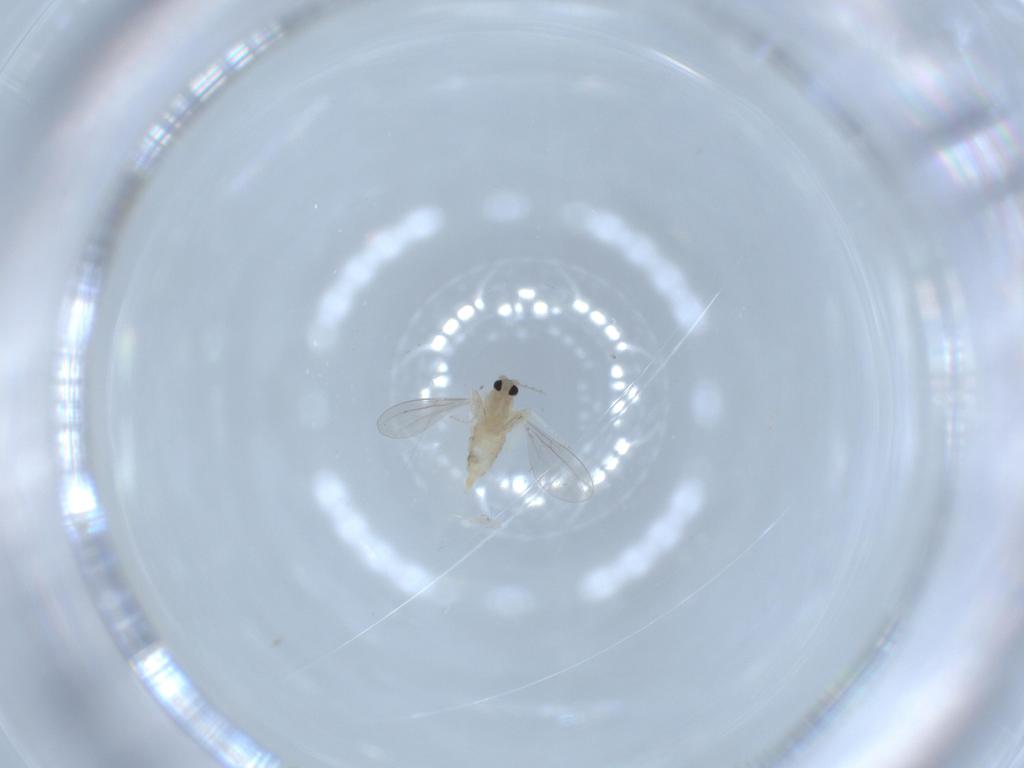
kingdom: Animalia
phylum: Arthropoda
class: Insecta
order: Diptera
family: Cecidomyiidae
